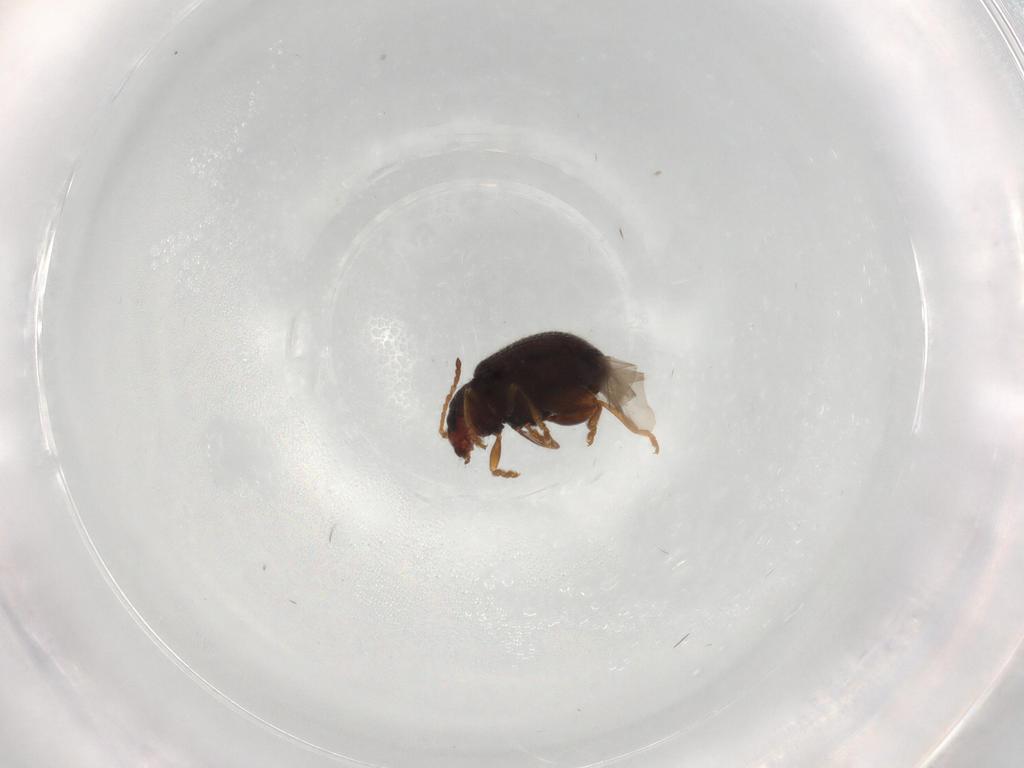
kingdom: Animalia
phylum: Arthropoda
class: Insecta
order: Coleoptera
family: Chrysomelidae
